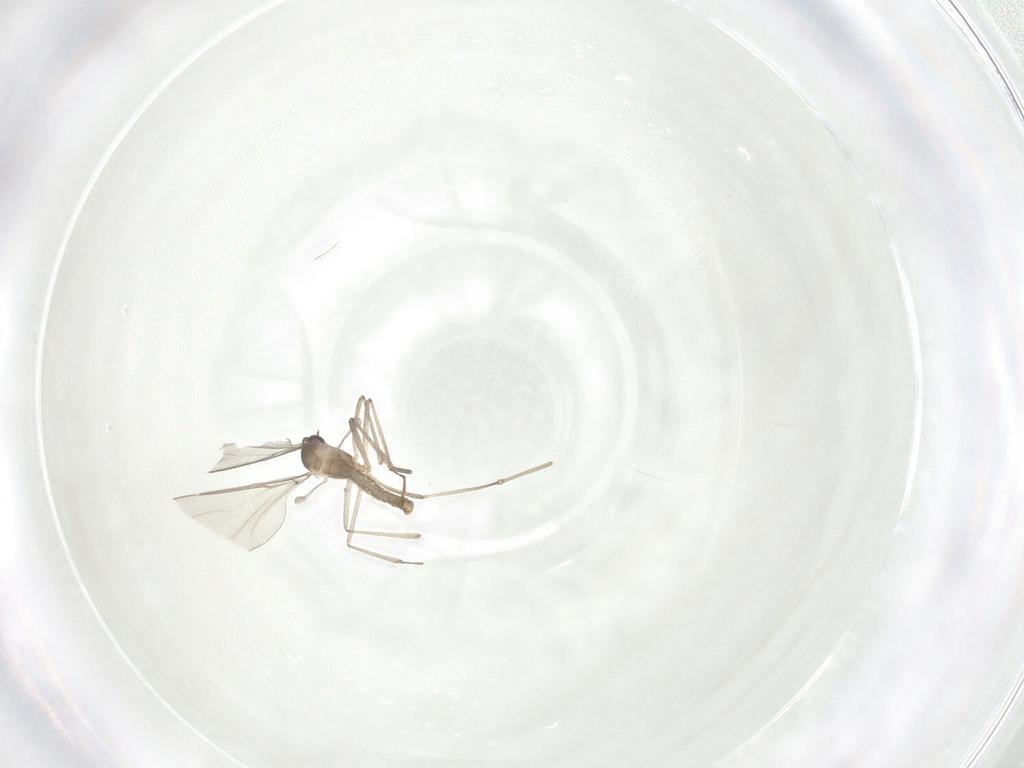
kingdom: Animalia
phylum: Arthropoda
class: Insecta
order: Diptera
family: Cecidomyiidae
